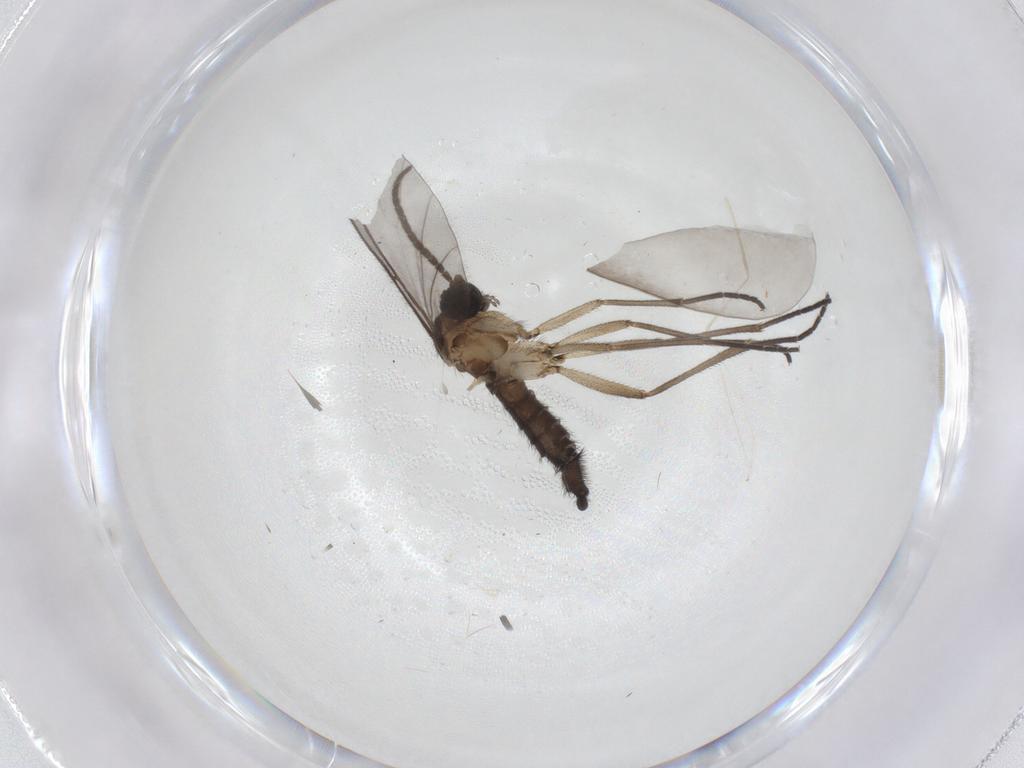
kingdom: Animalia
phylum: Arthropoda
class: Insecta
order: Diptera
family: Sciaridae
